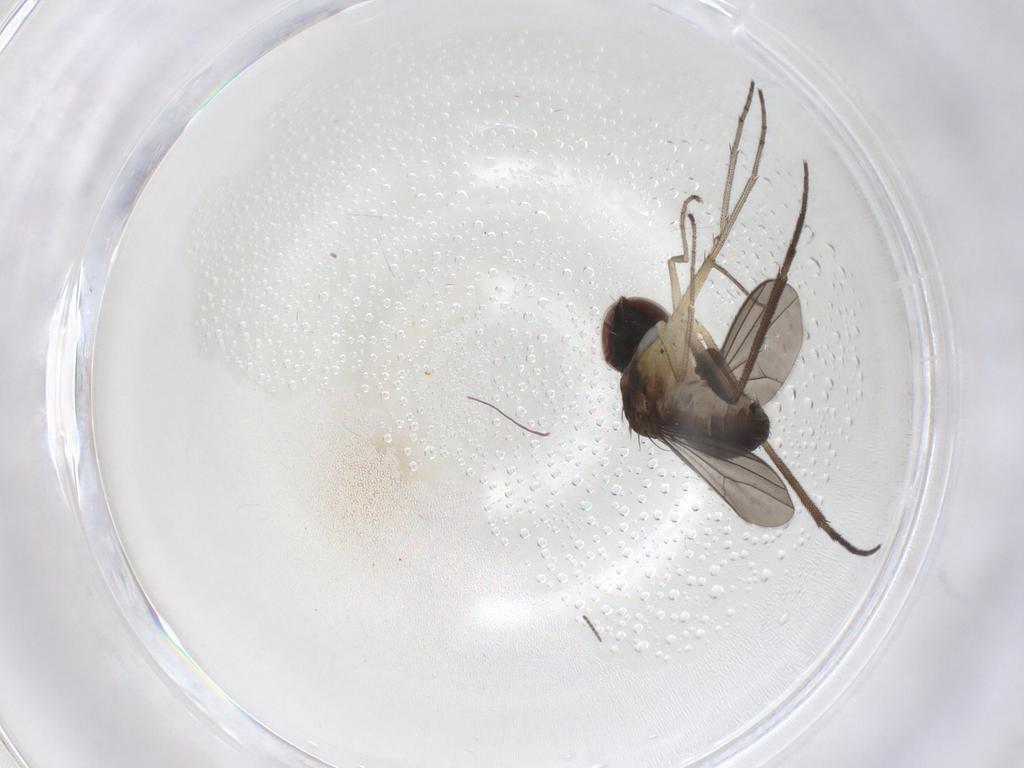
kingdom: Animalia
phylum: Arthropoda
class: Insecta
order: Diptera
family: Dolichopodidae
